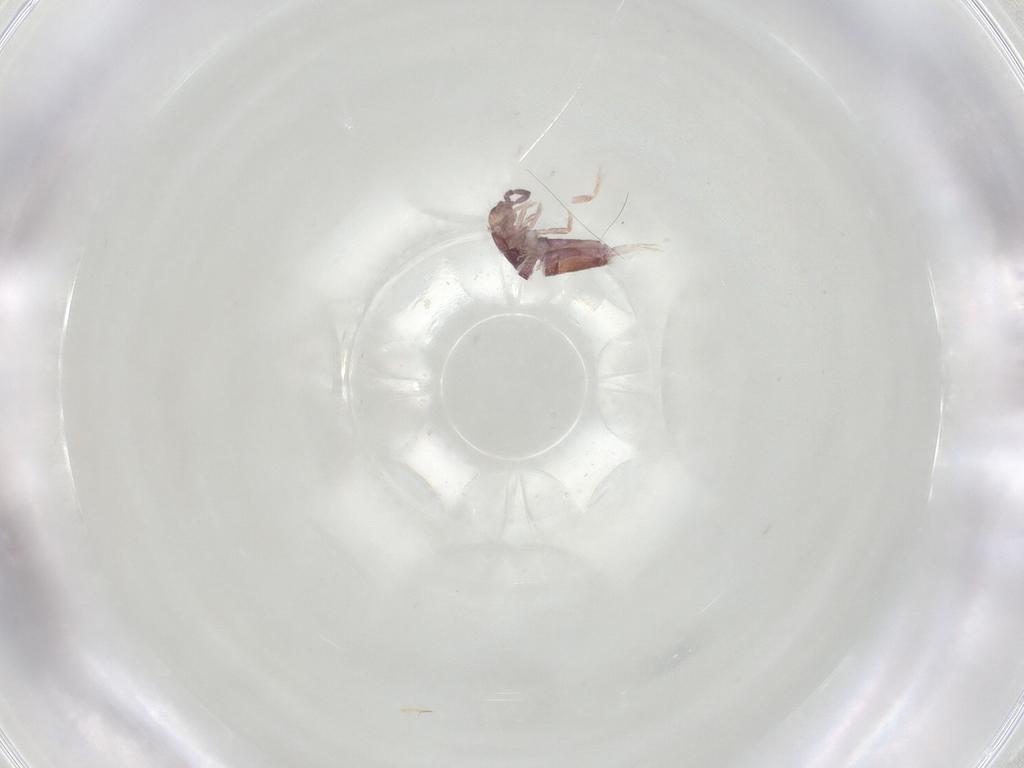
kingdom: Animalia
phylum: Arthropoda
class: Collembola
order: Entomobryomorpha
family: Entomobryidae
